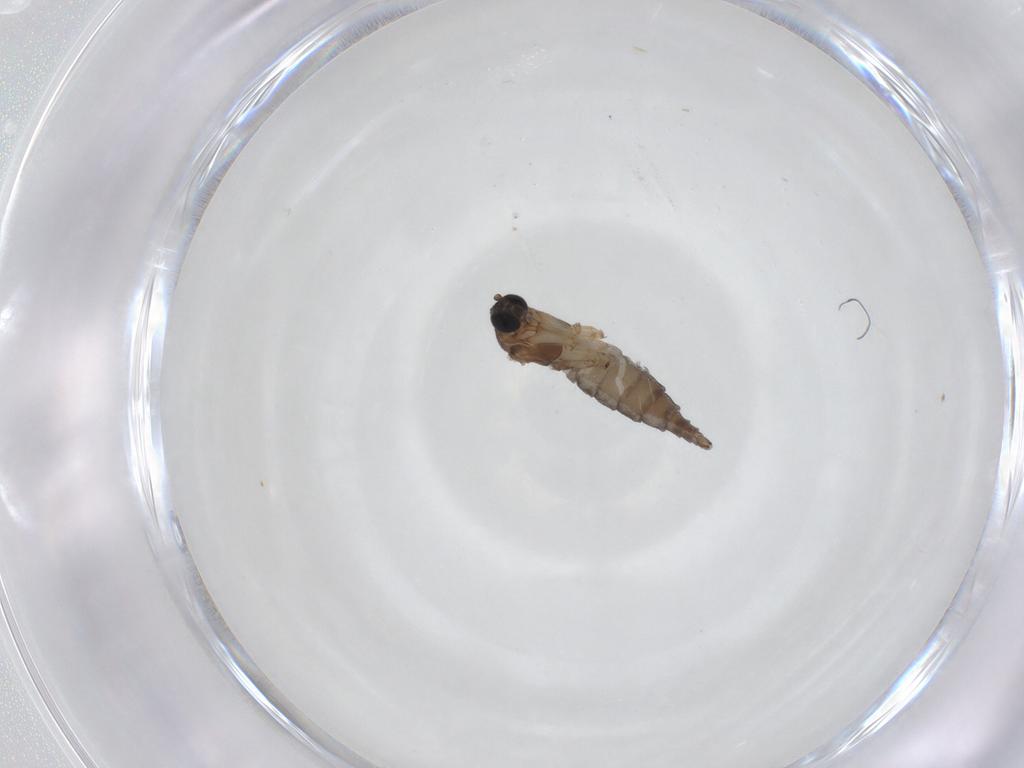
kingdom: Animalia
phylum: Arthropoda
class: Insecta
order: Diptera
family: Sciaridae
